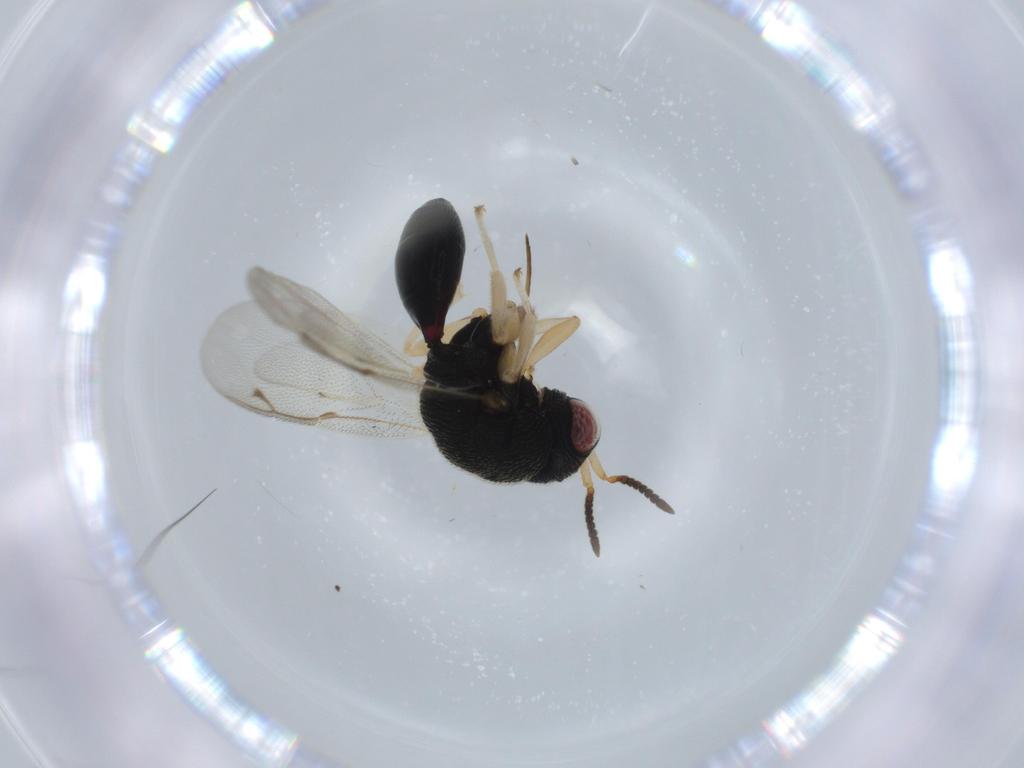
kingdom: Animalia
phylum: Arthropoda
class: Insecta
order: Hymenoptera
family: Eurytomidae
